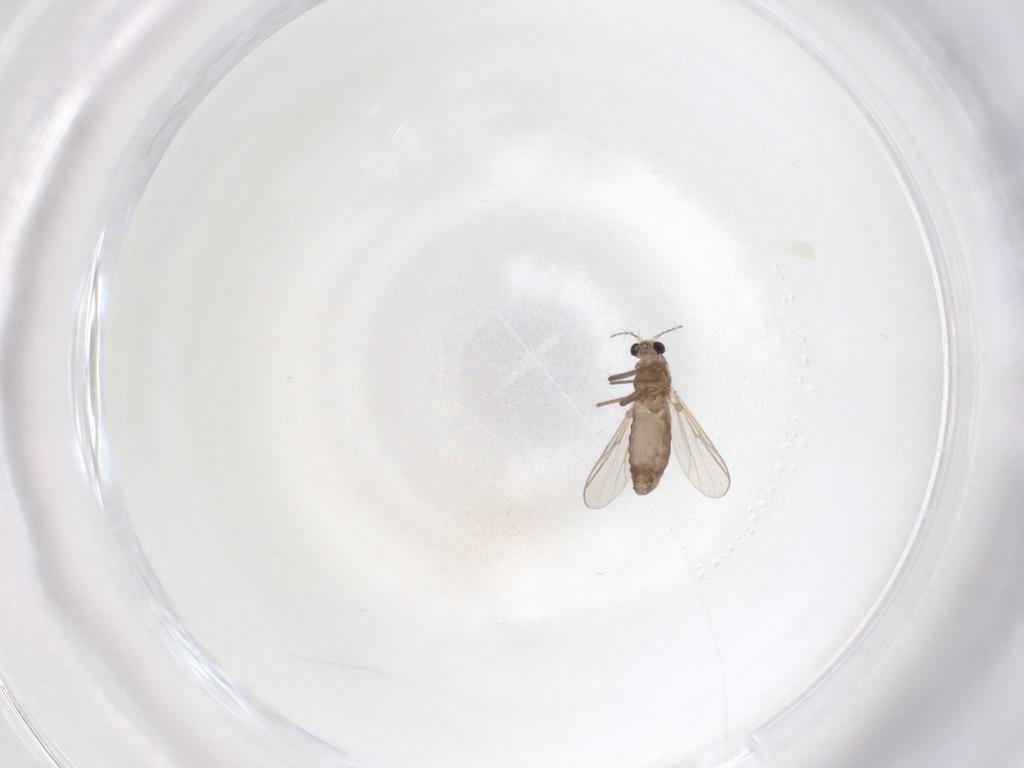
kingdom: Animalia
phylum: Arthropoda
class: Insecta
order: Diptera
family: Chironomidae
